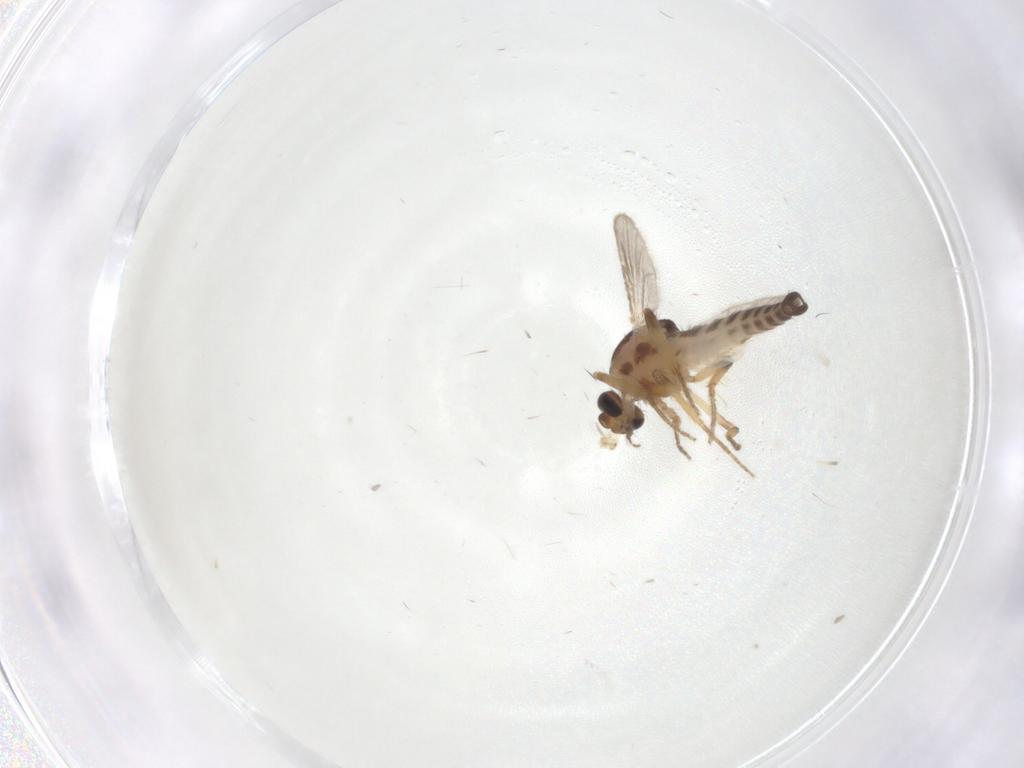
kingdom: Animalia
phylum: Arthropoda
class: Insecta
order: Diptera
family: Ceratopogonidae
